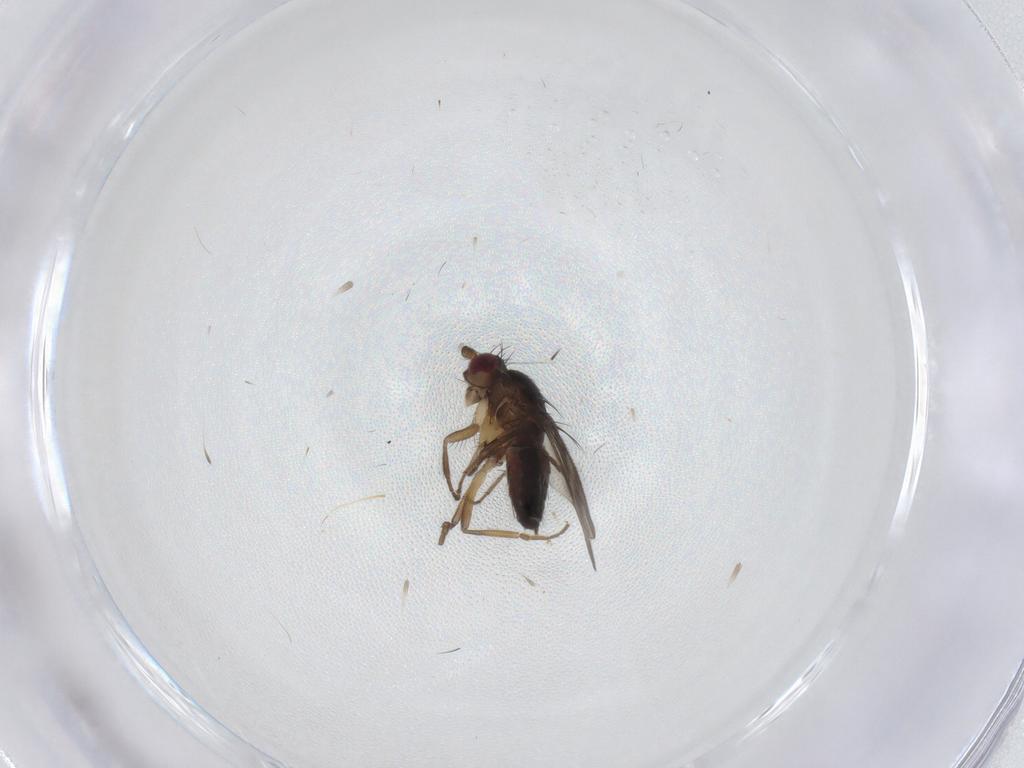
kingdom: Animalia
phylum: Arthropoda
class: Insecta
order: Diptera
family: Sphaeroceridae
